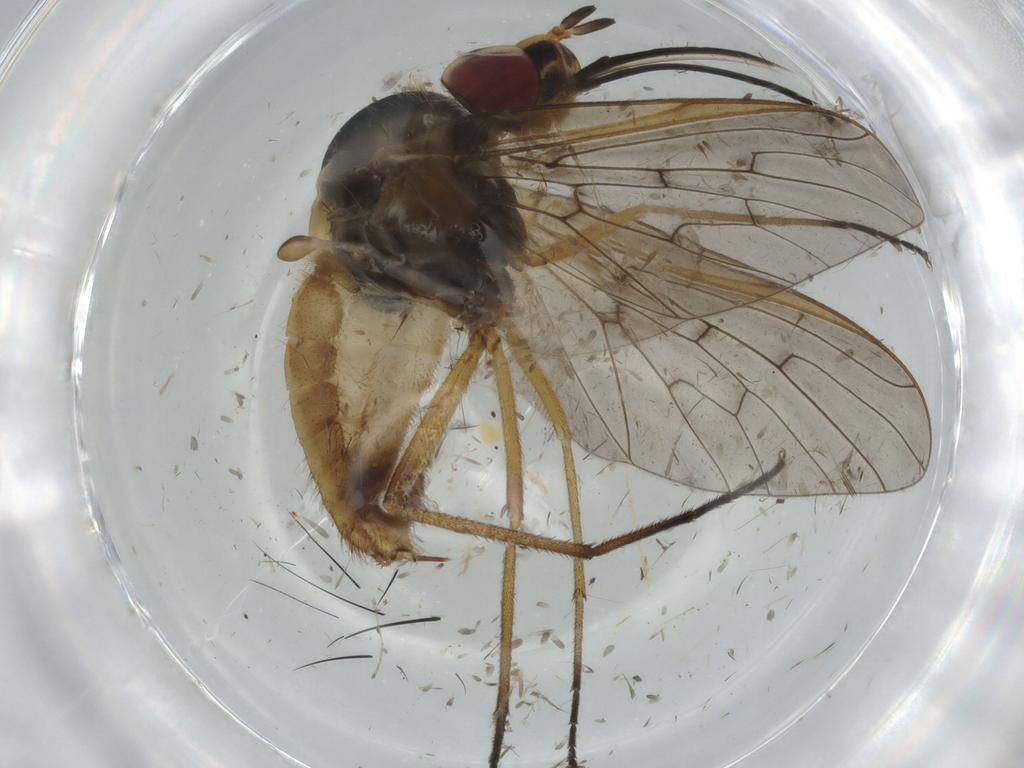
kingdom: Animalia
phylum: Arthropoda
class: Insecta
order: Diptera
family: Bombyliidae
